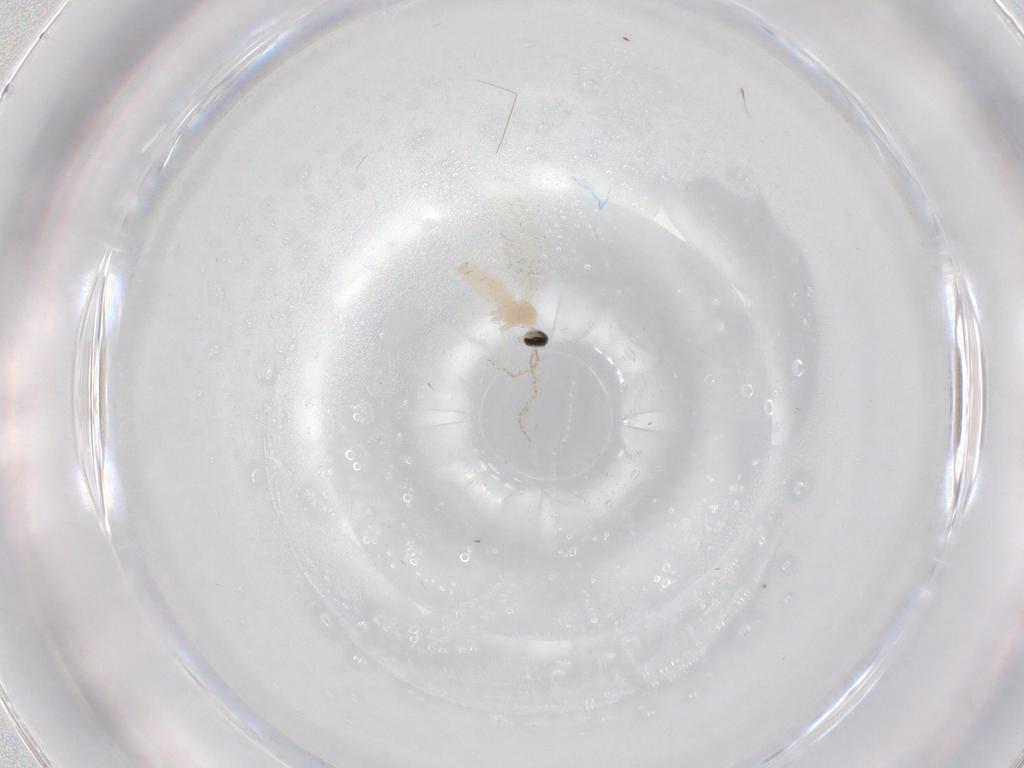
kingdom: Animalia
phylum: Arthropoda
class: Insecta
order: Diptera
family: Cecidomyiidae
